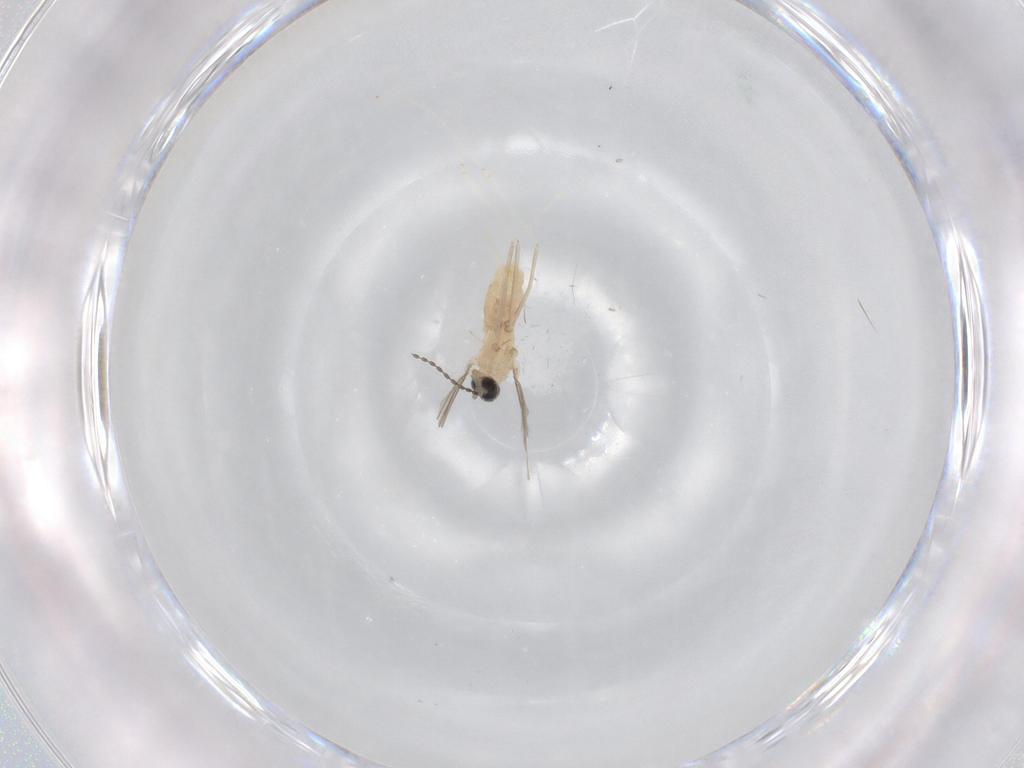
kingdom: Animalia
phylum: Arthropoda
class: Insecta
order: Diptera
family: Cecidomyiidae
